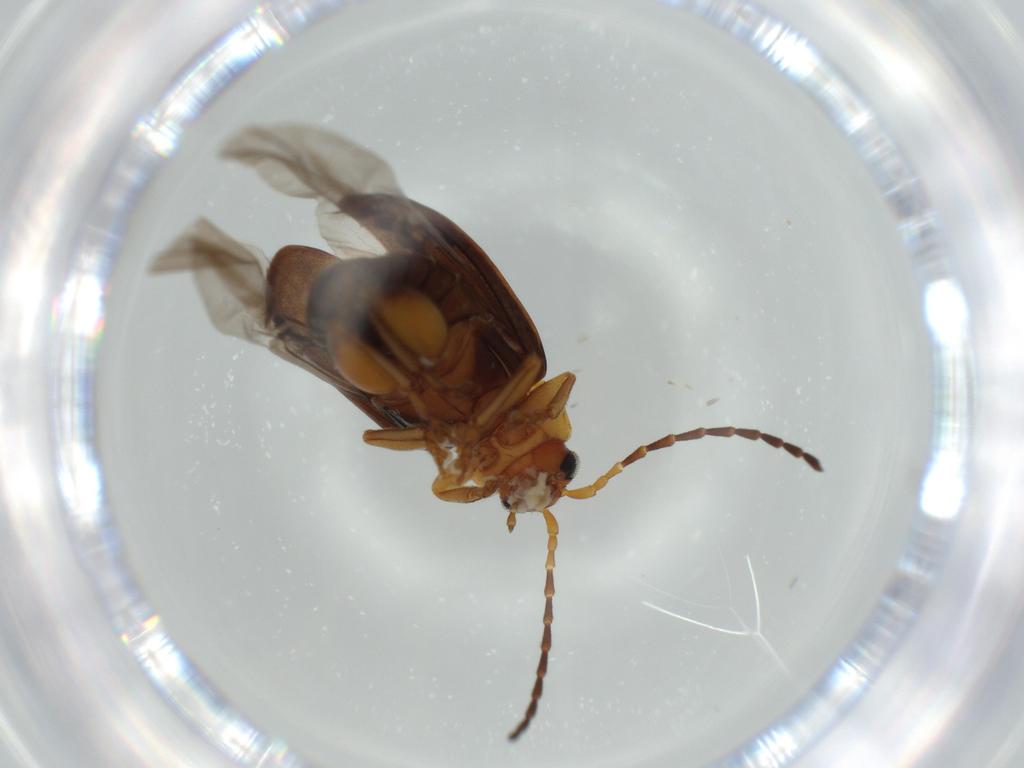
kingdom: Animalia
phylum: Arthropoda
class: Insecta
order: Coleoptera
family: Chrysomelidae
